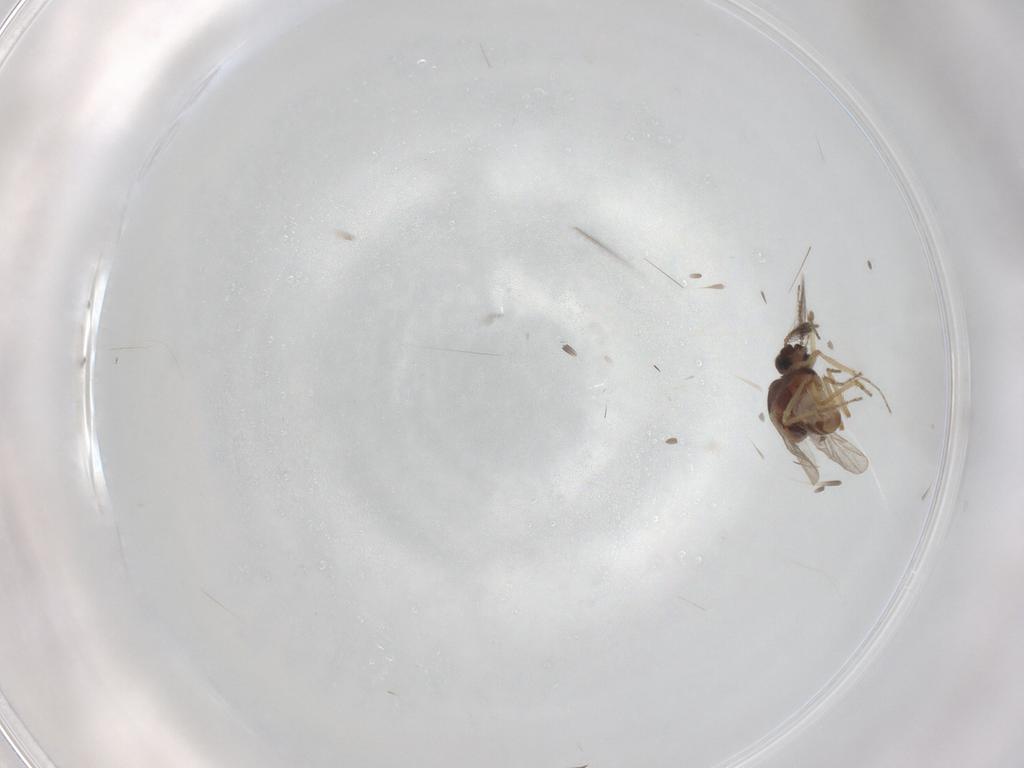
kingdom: Animalia
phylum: Arthropoda
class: Insecta
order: Diptera
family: Ceratopogonidae
